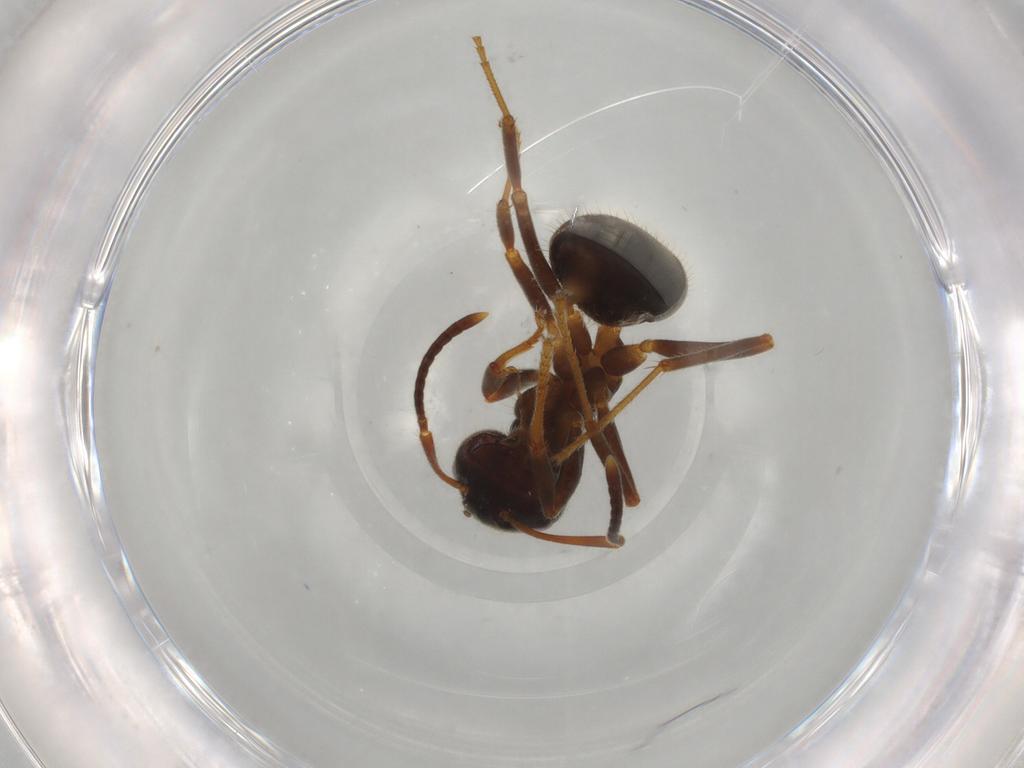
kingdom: Animalia
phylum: Arthropoda
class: Insecta
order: Hymenoptera
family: Formicidae
